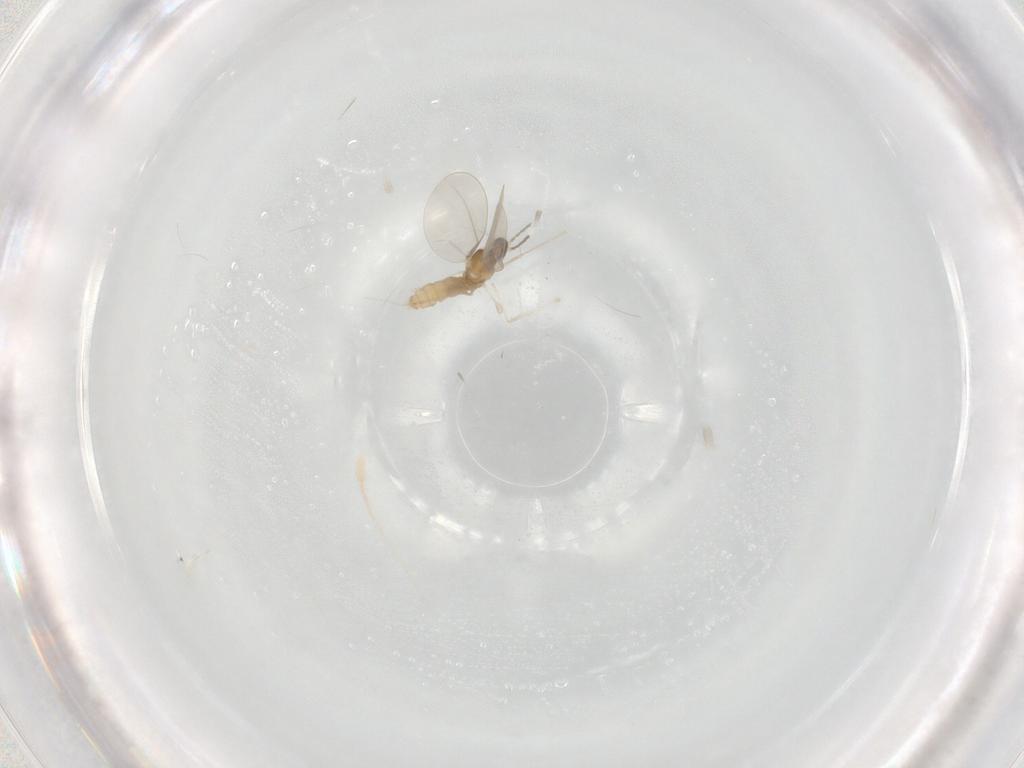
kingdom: Animalia
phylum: Arthropoda
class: Insecta
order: Diptera
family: Cecidomyiidae
